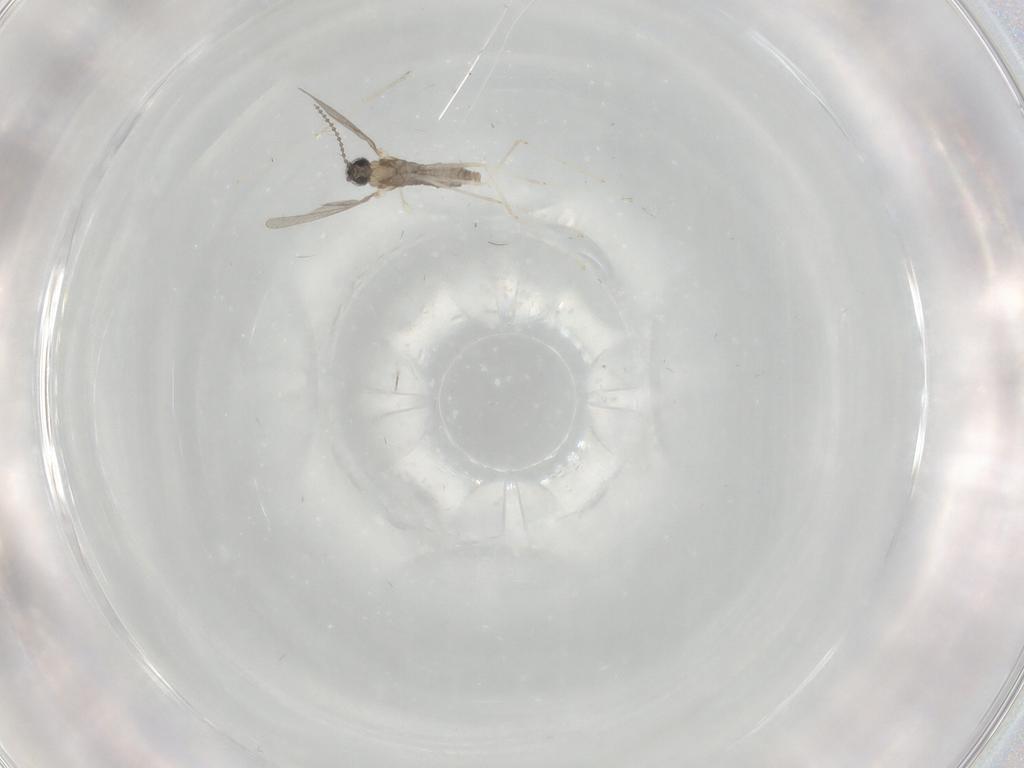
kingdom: Animalia
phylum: Arthropoda
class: Insecta
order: Diptera
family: Cecidomyiidae
